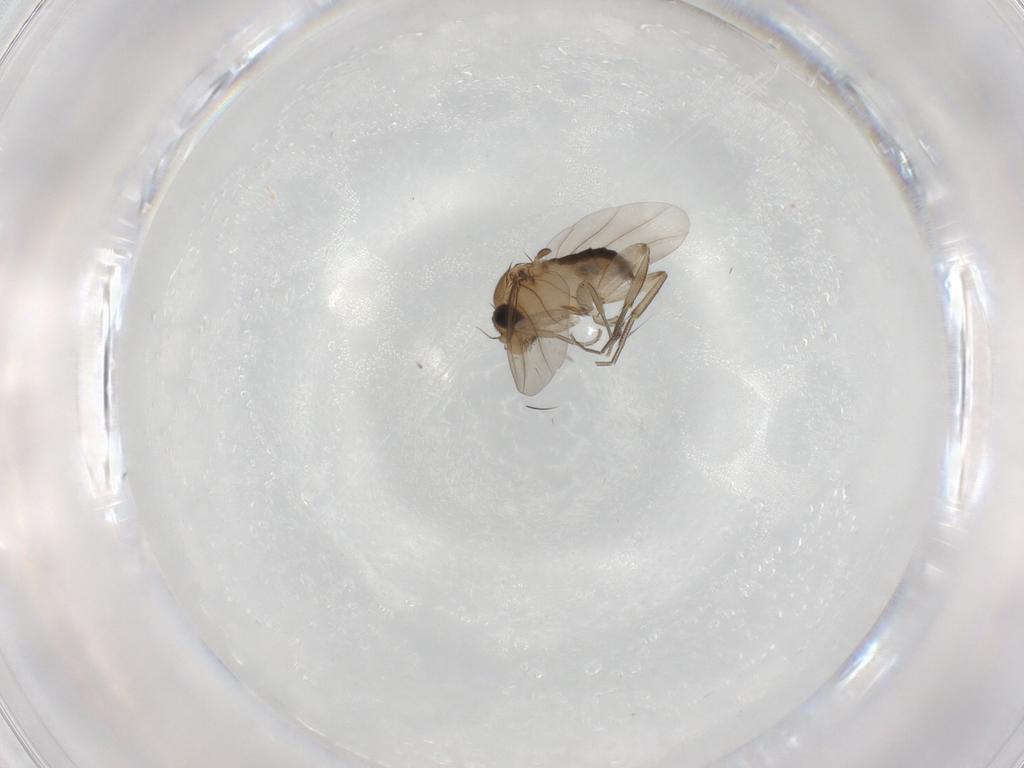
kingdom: Animalia
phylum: Arthropoda
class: Insecta
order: Diptera
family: Phoridae
